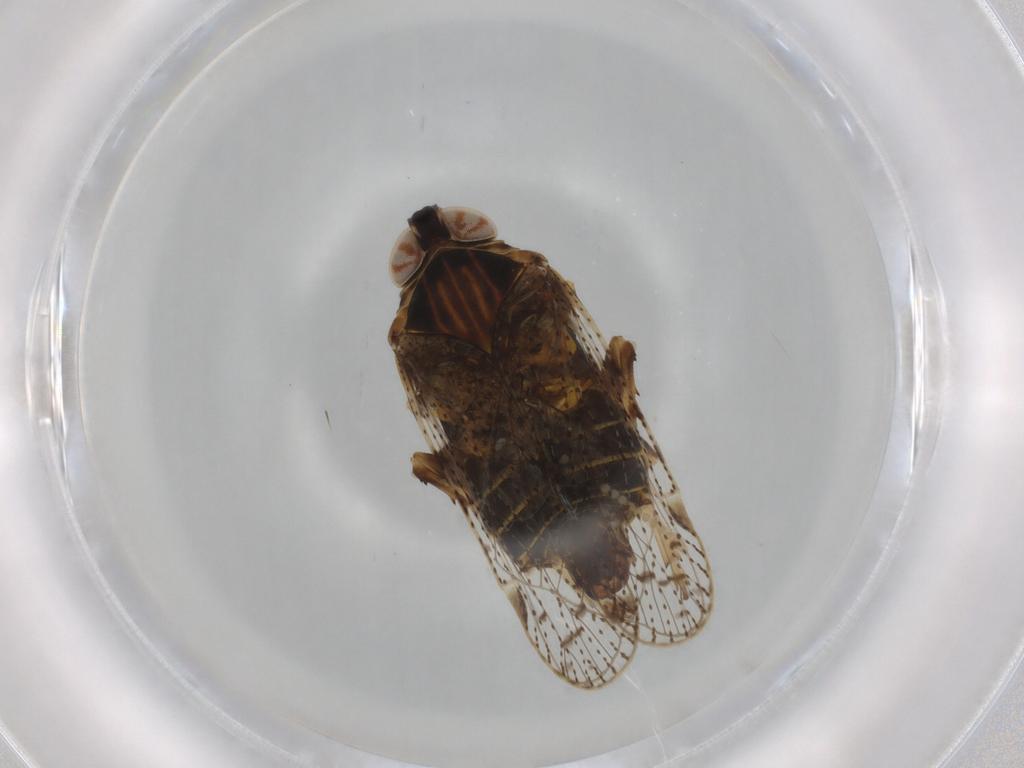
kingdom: Animalia
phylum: Arthropoda
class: Insecta
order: Hemiptera
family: Cixiidae
